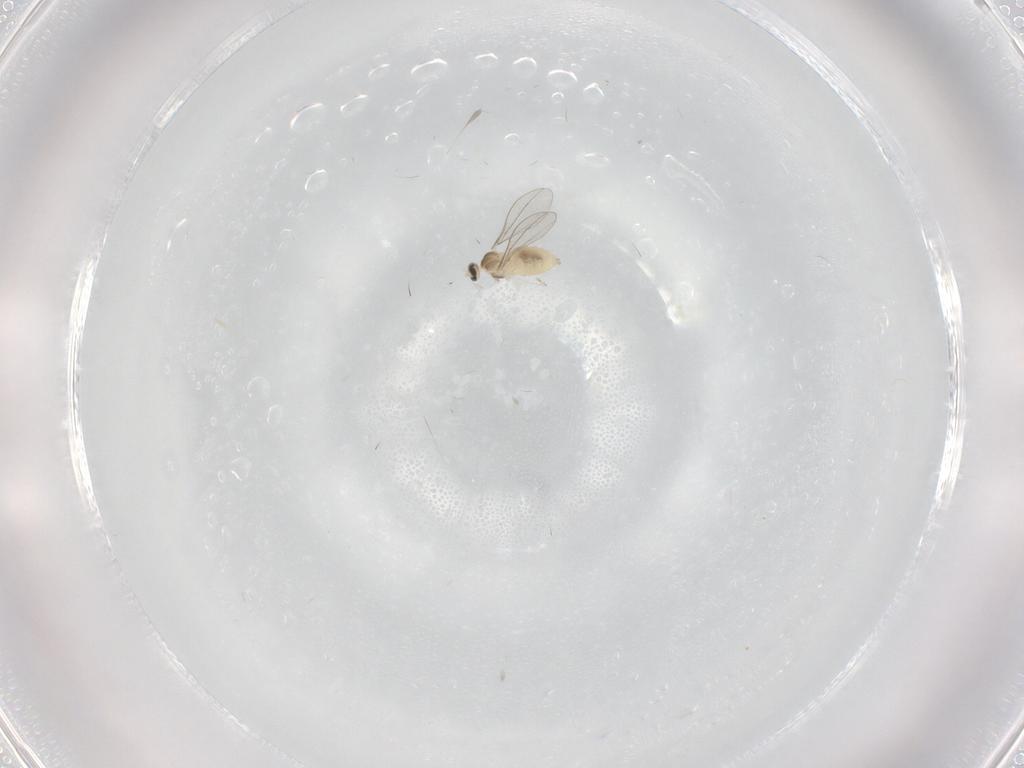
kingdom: Animalia
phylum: Arthropoda
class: Insecta
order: Diptera
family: Cecidomyiidae
